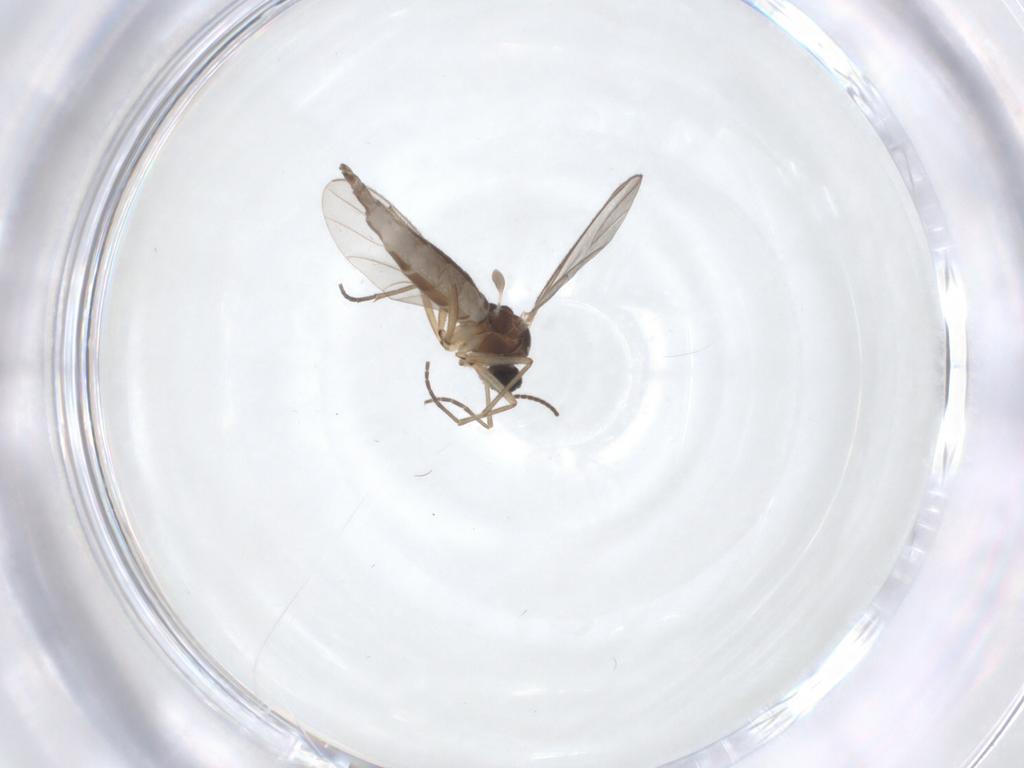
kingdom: Animalia
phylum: Arthropoda
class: Insecta
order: Diptera
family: Sciaridae
